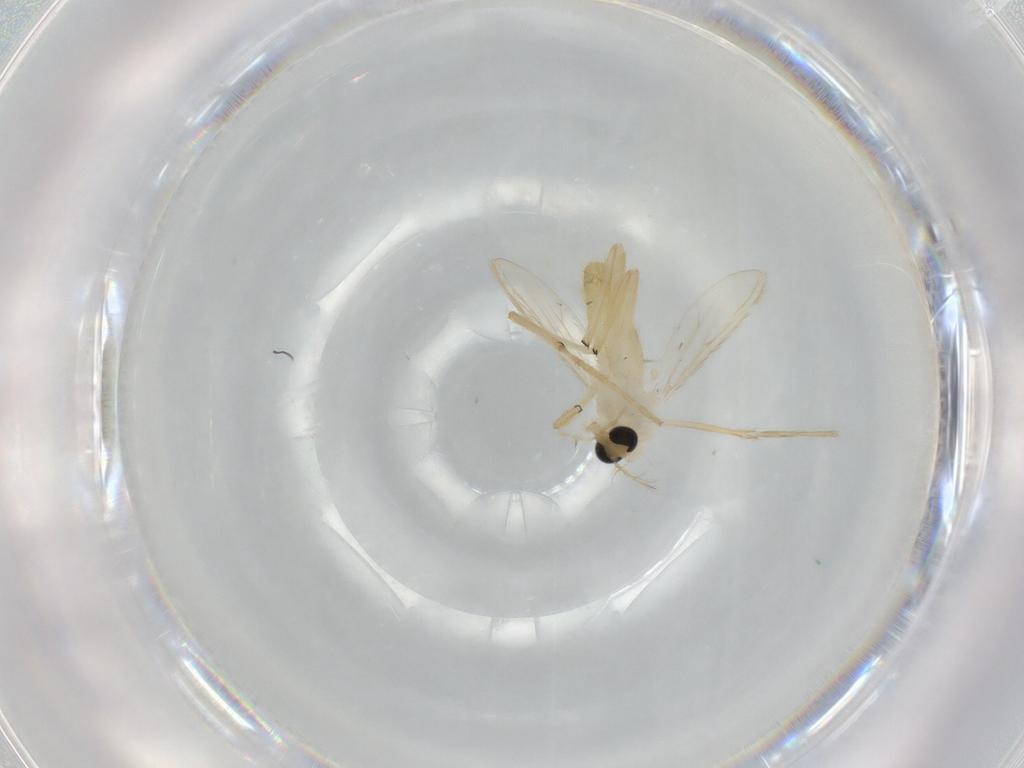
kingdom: Animalia
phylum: Arthropoda
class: Insecta
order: Diptera
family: Chironomidae
